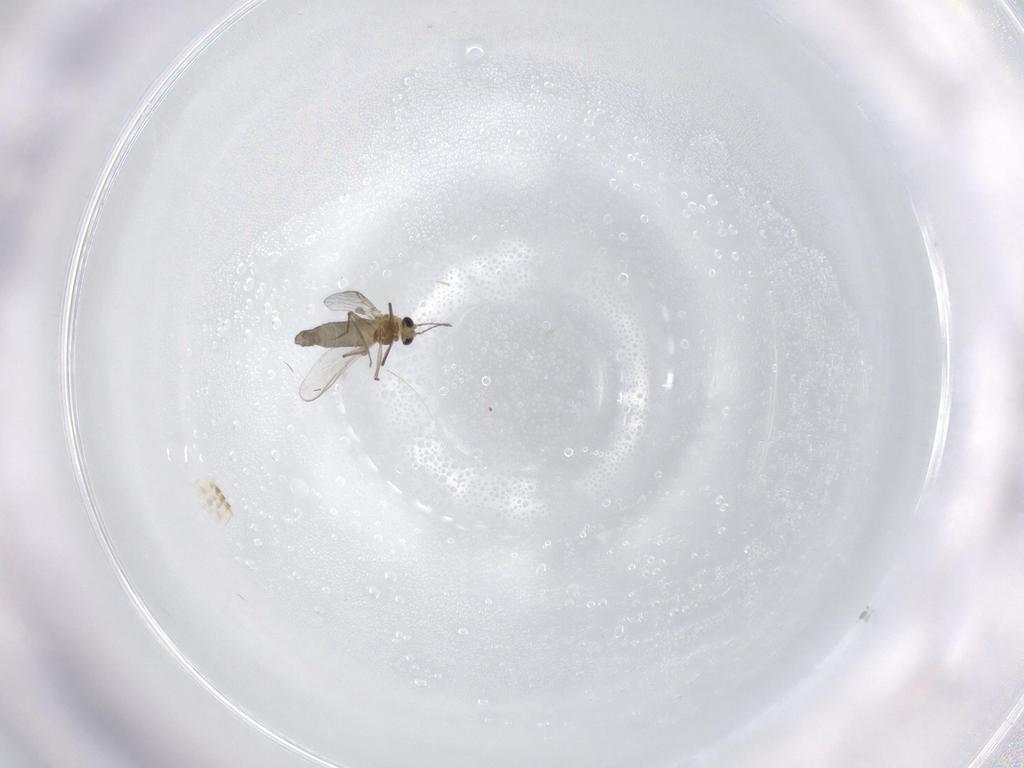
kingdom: Animalia
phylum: Arthropoda
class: Insecta
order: Diptera
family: Chironomidae
